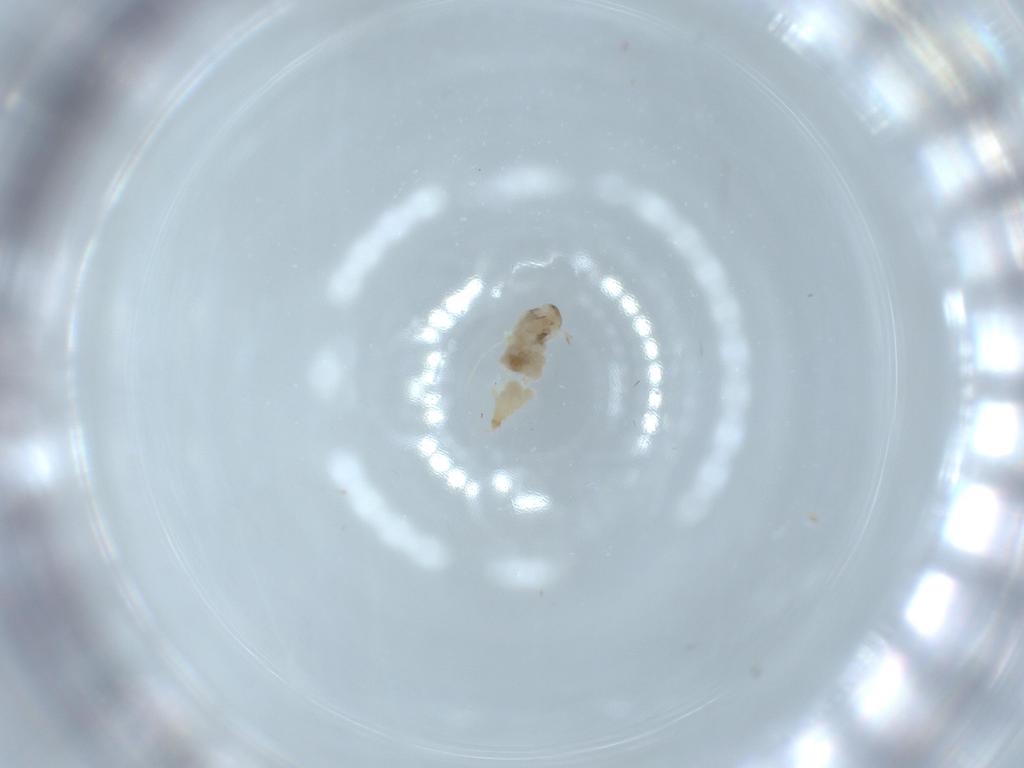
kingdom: Animalia
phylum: Arthropoda
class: Insecta
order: Diptera
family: Cecidomyiidae
